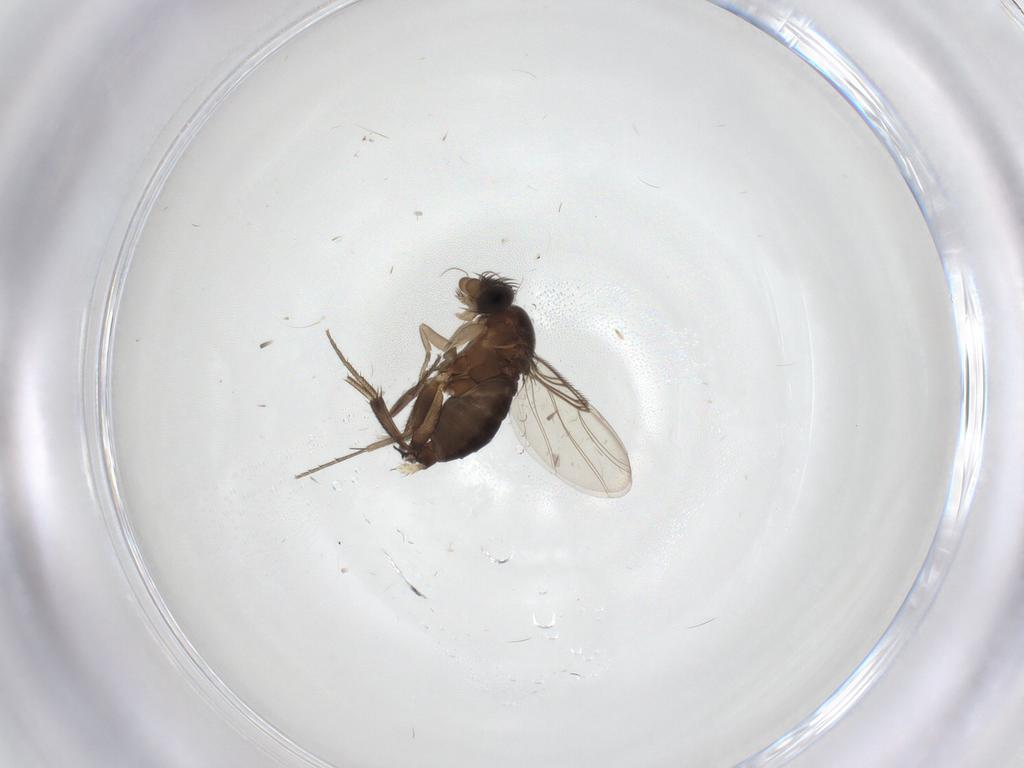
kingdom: Animalia
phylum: Arthropoda
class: Insecta
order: Diptera
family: Cecidomyiidae
